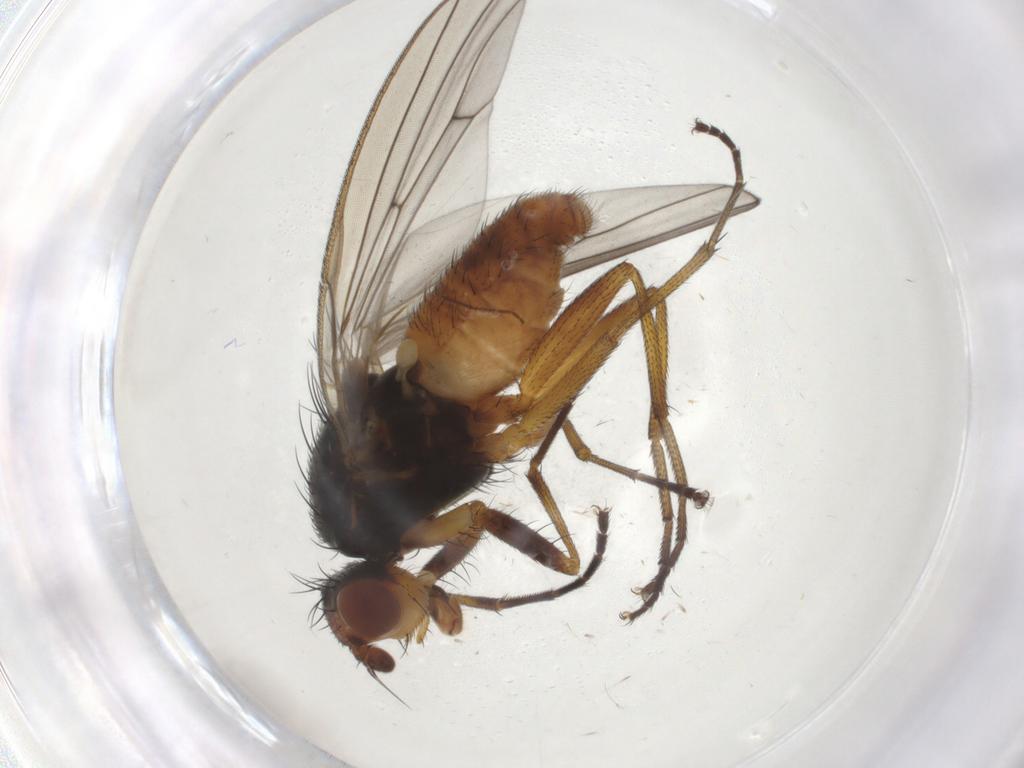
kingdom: Animalia
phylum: Arthropoda
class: Insecta
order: Diptera
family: Heleomyzidae
